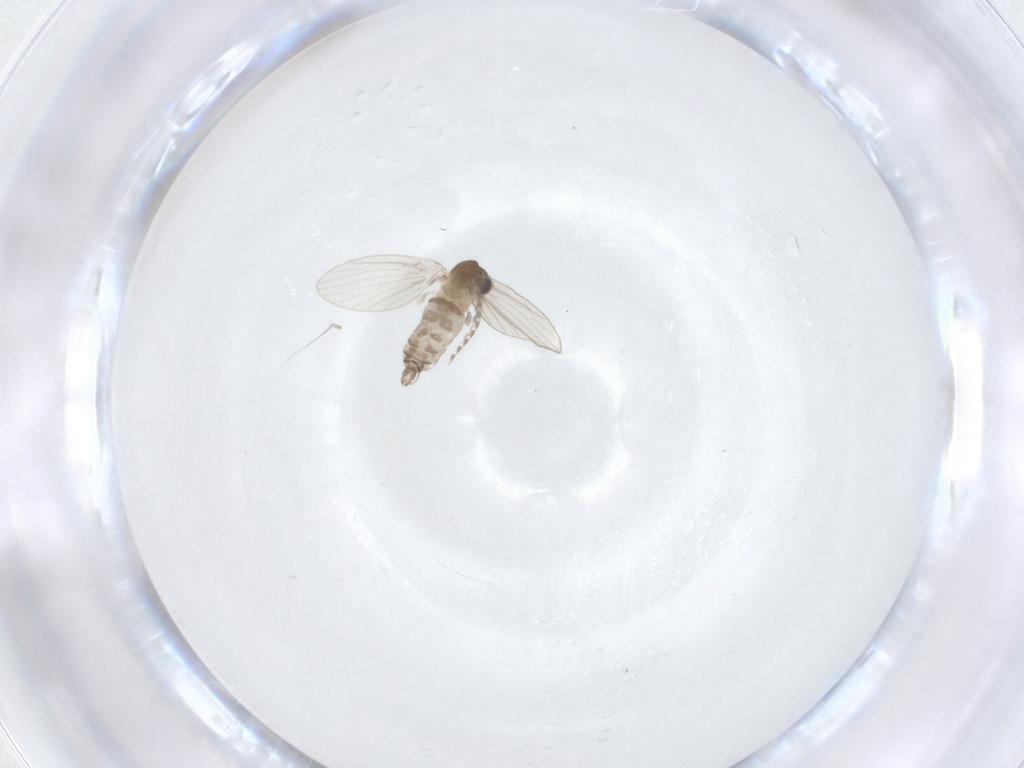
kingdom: Animalia
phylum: Arthropoda
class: Insecta
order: Diptera
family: Psychodidae
